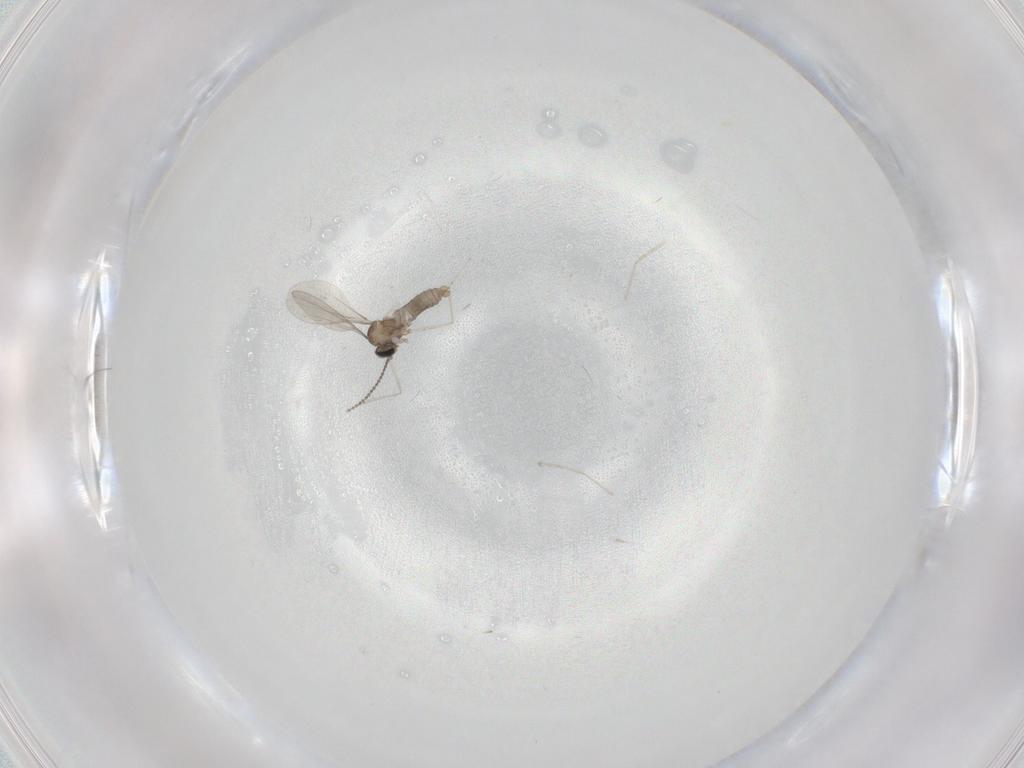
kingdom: Animalia
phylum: Arthropoda
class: Insecta
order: Diptera
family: Cecidomyiidae
